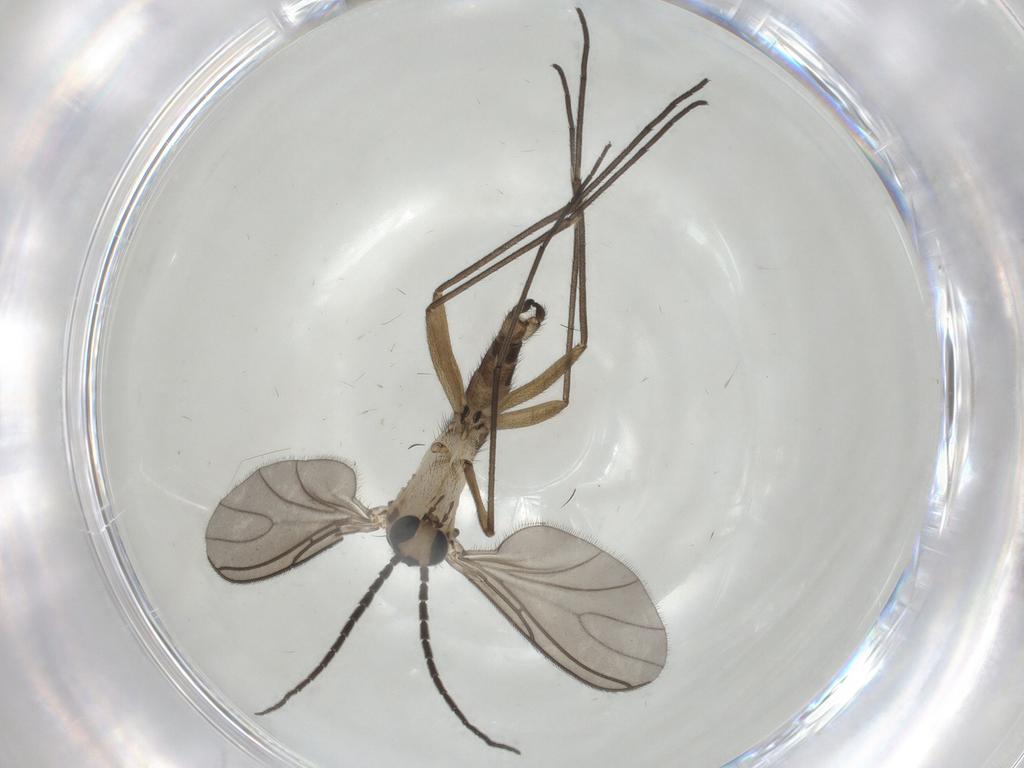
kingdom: Animalia
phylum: Arthropoda
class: Insecta
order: Diptera
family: Sciaridae
